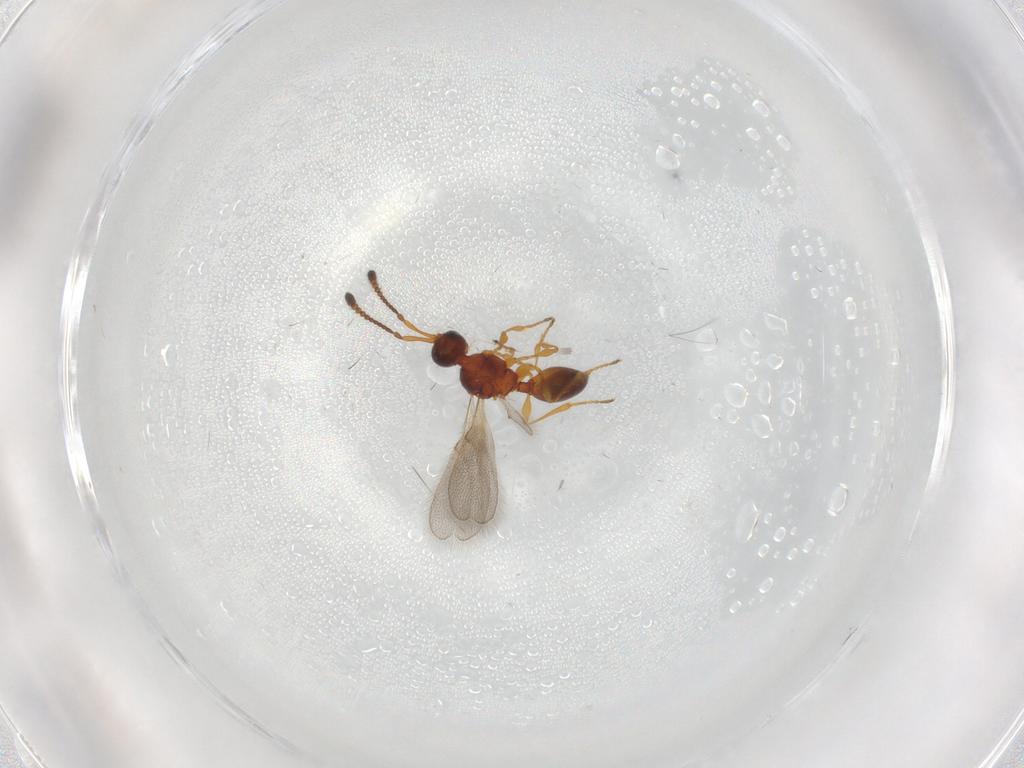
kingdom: Animalia
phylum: Arthropoda
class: Insecta
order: Hymenoptera
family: Diapriidae
